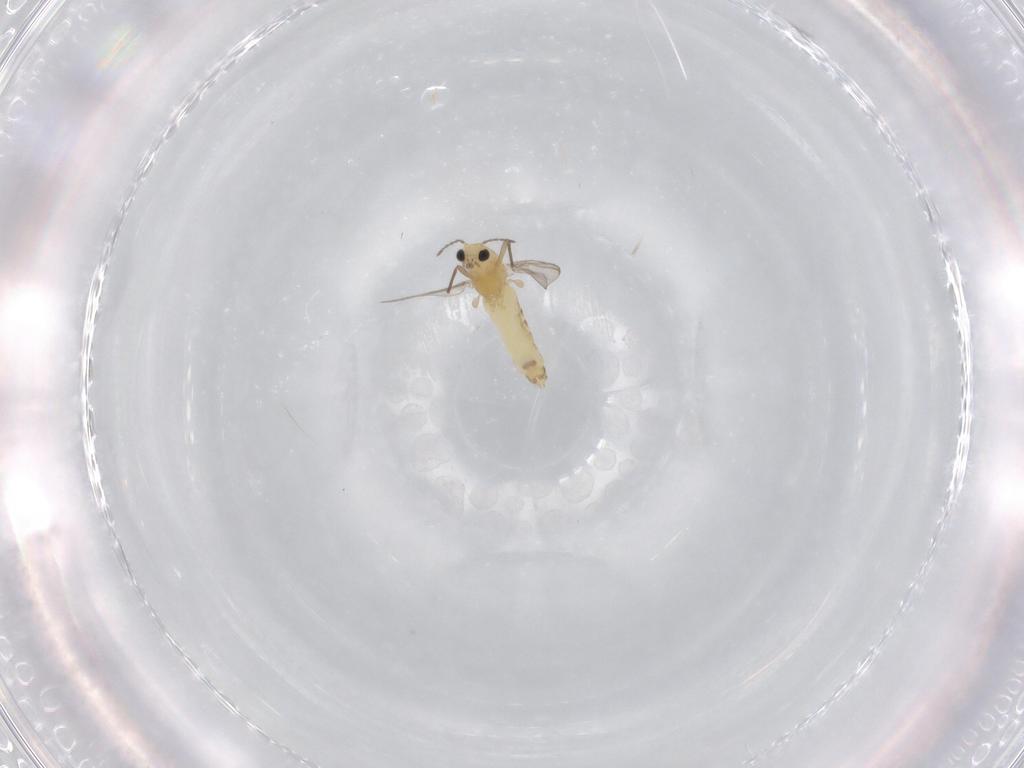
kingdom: Animalia
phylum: Arthropoda
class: Insecta
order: Diptera
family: Chironomidae
